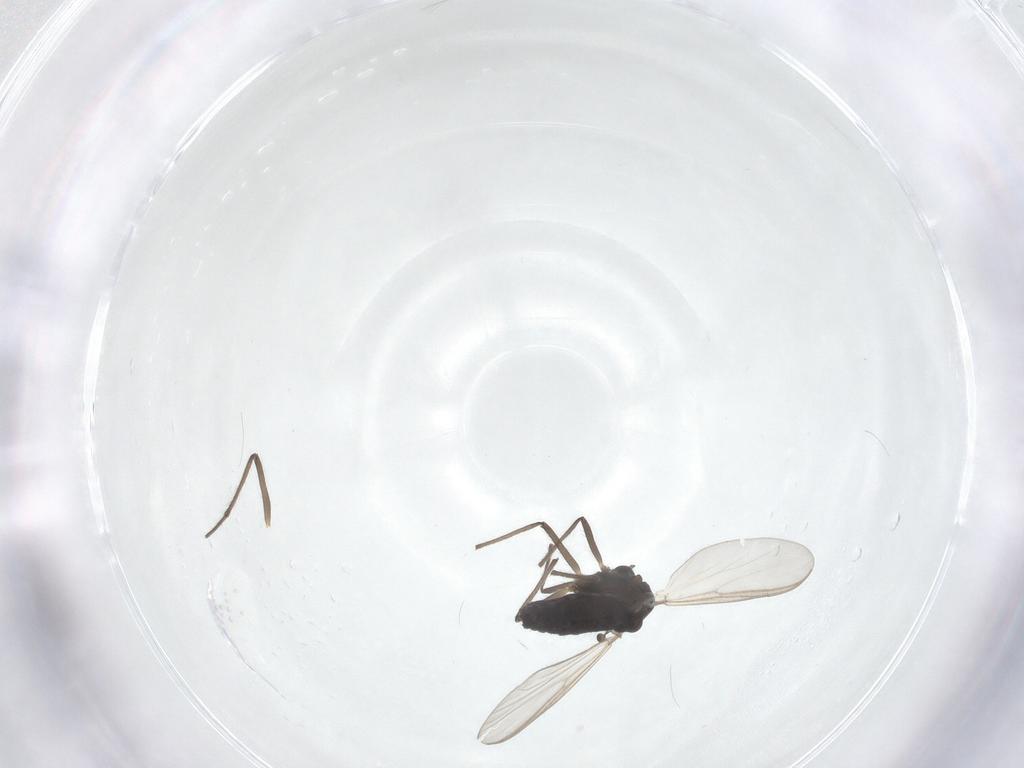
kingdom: Animalia
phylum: Arthropoda
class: Insecta
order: Diptera
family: Chironomidae
